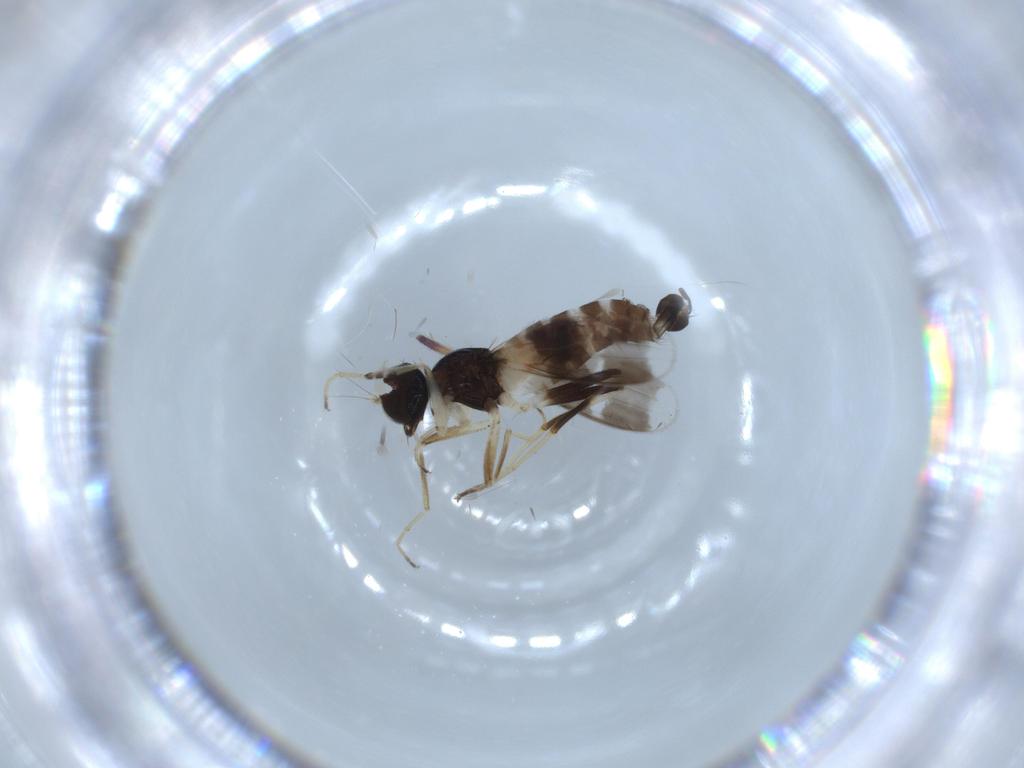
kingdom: Animalia
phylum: Arthropoda
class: Insecta
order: Diptera
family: Hybotidae
